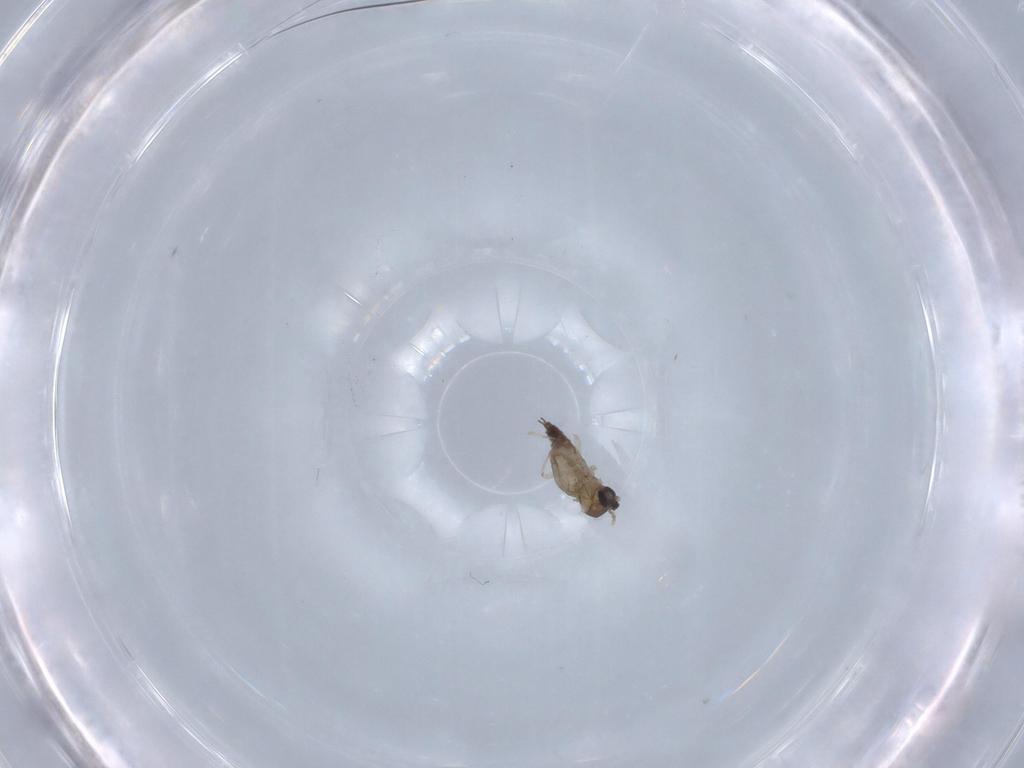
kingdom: Animalia
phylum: Arthropoda
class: Insecta
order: Diptera
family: Cecidomyiidae
